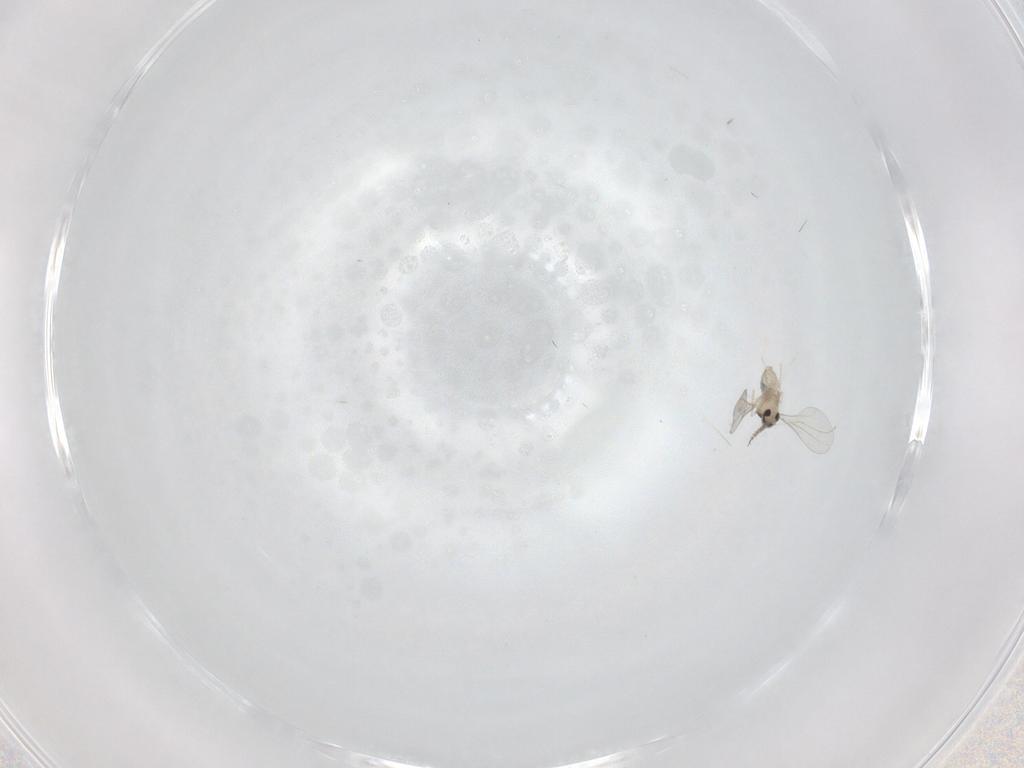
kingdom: Animalia
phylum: Arthropoda
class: Insecta
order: Diptera
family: Cecidomyiidae
